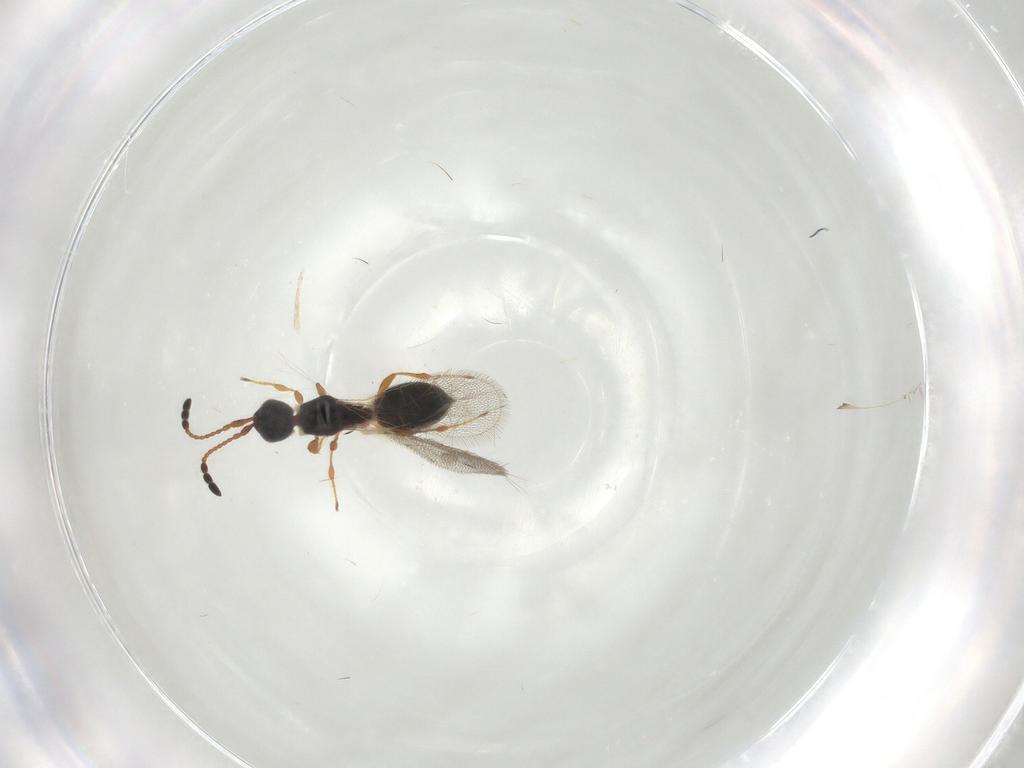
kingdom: Animalia
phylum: Arthropoda
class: Insecta
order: Hymenoptera
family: Diapriidae
